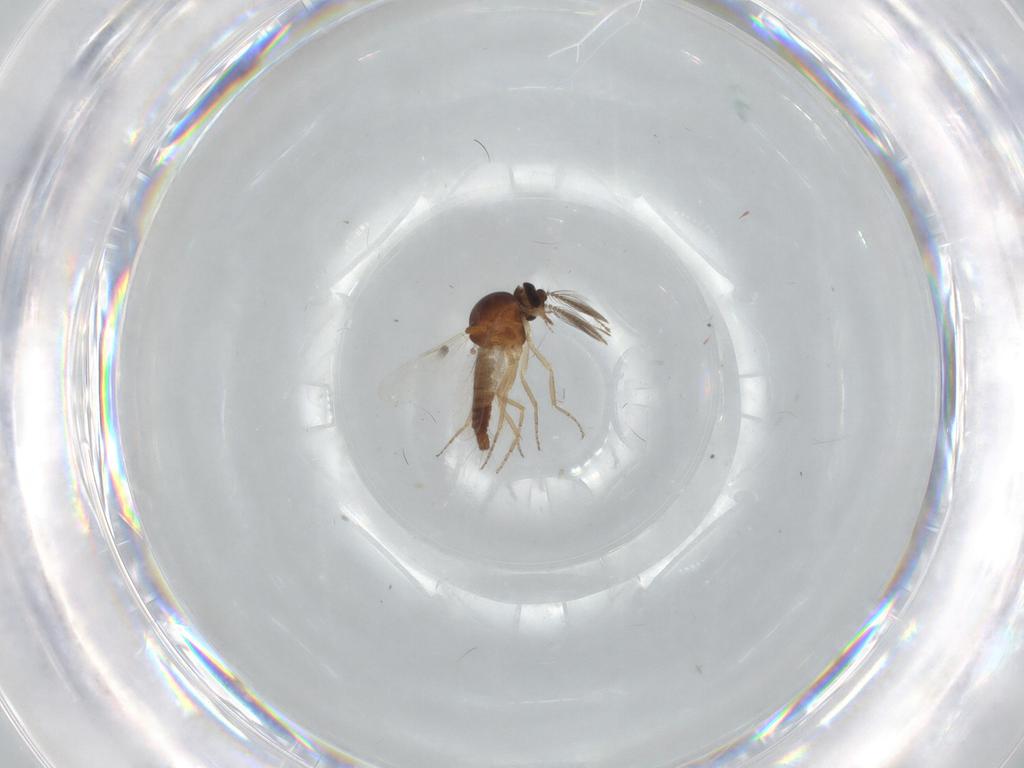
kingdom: Animalia
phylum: Arthropoda
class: Insecta
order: Diptera
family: Ceratopogonidae
